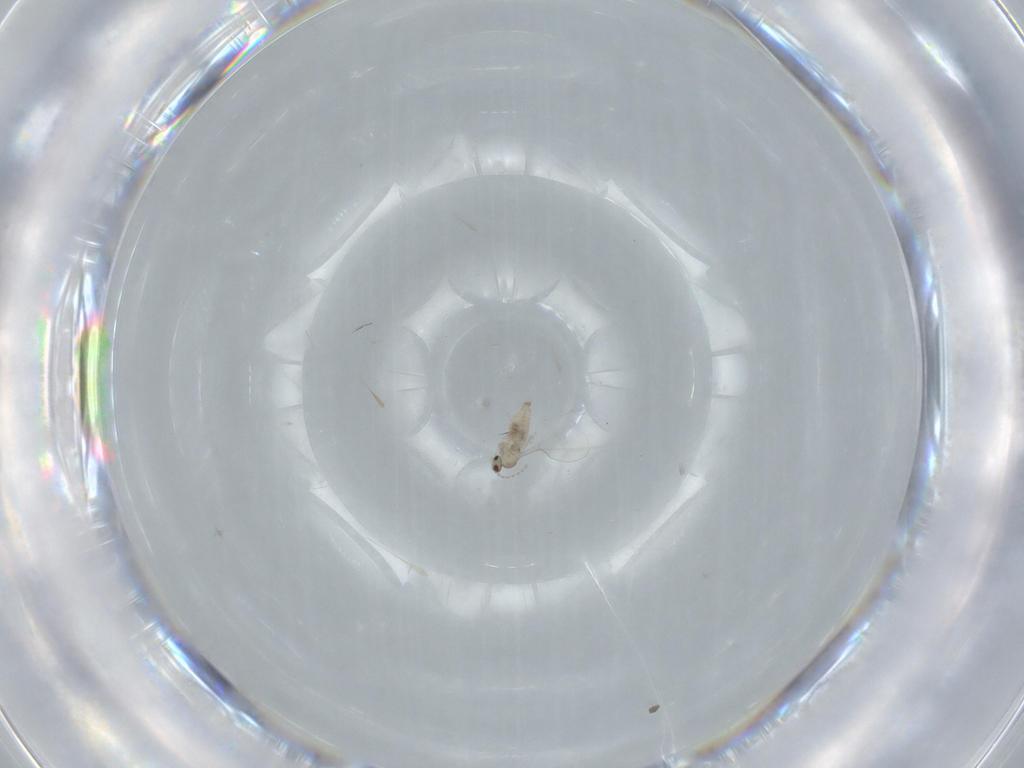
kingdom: Animalia
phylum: Arthropoda
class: Insecta
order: Diptera
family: Cecidomyiidae
